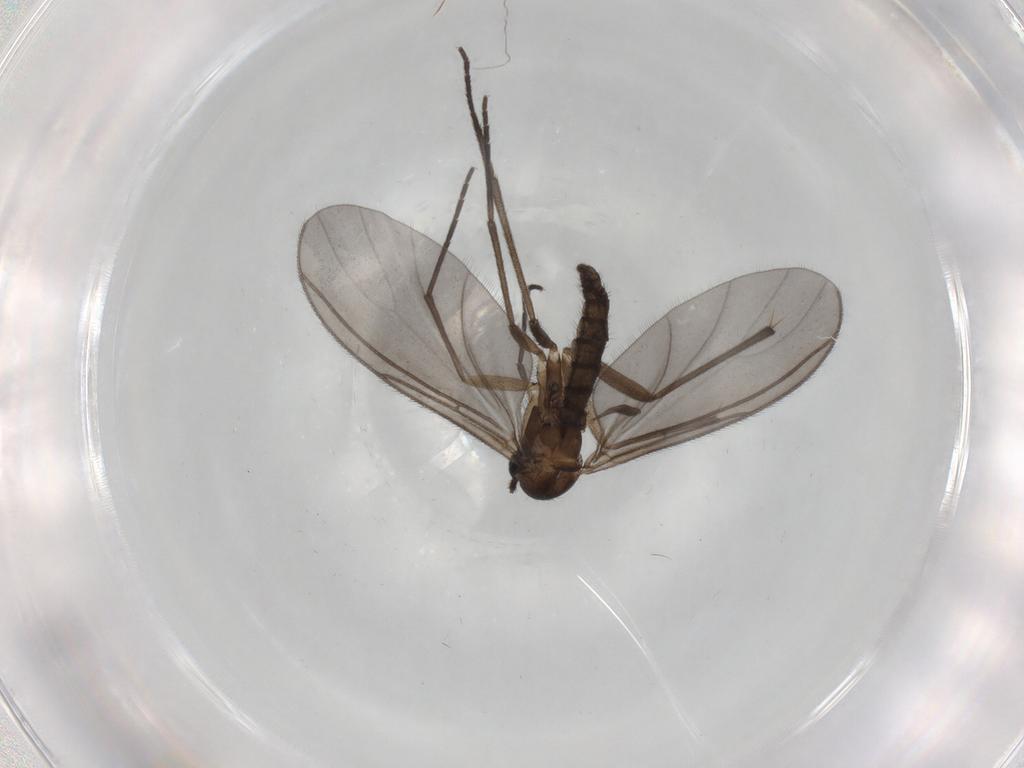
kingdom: Animalia
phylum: Arthropoda
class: Insecta
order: Diptera
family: Sciaridae
